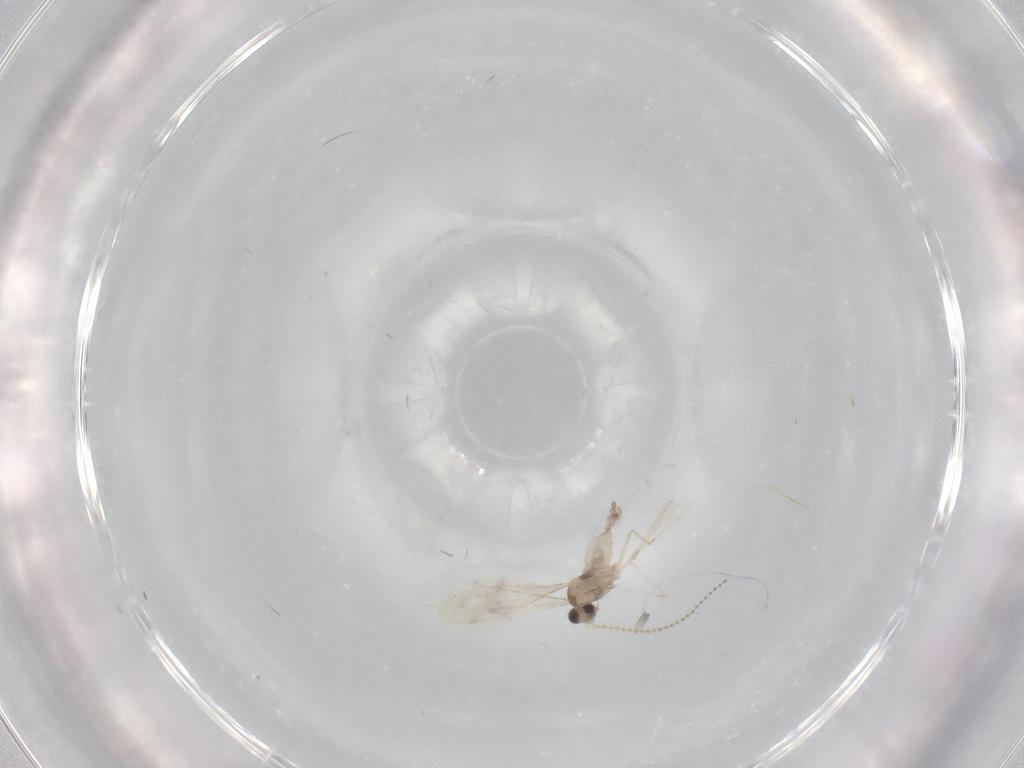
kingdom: Animalia
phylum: Arthropoda
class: Insecta
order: Diptera
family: Cecidomyiidae
